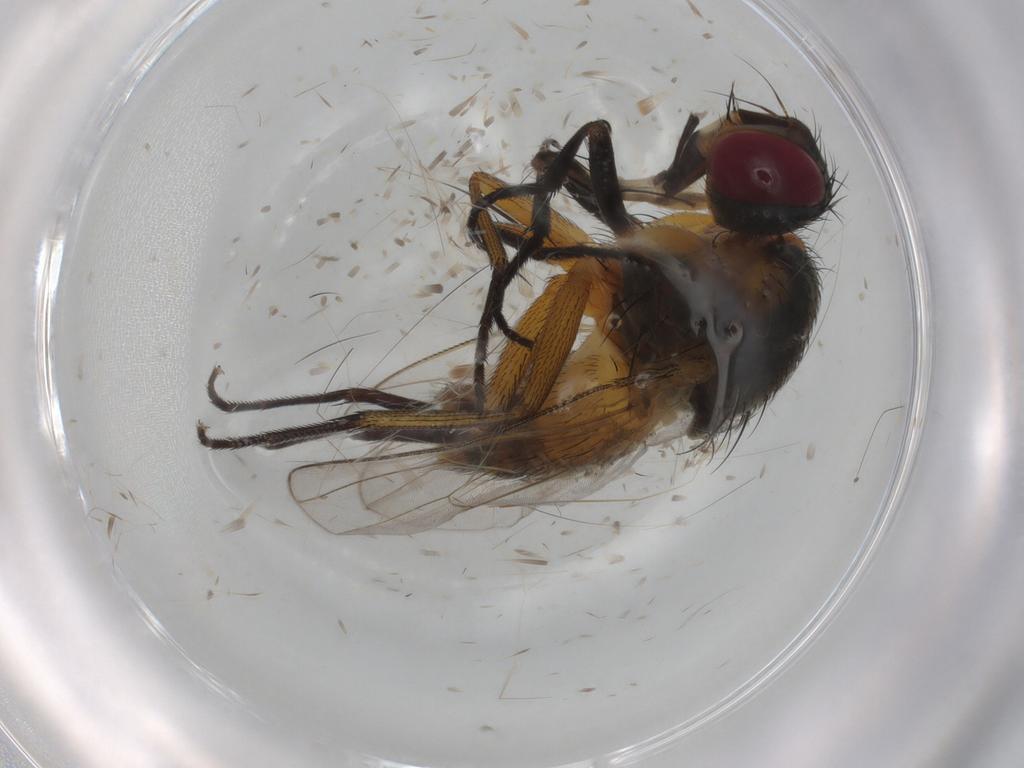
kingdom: Animalia
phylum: Arthropoda
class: Insecta
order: Diptera
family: Muscidae
